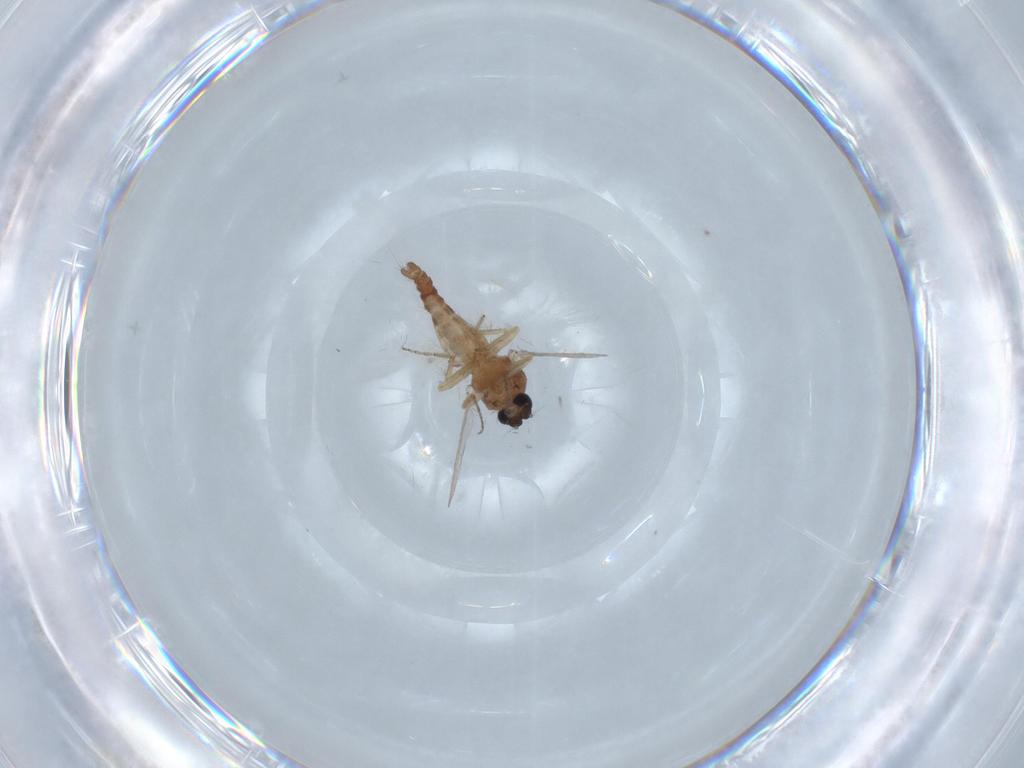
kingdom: Animalia
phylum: Arthropoda
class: Insecta
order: Diptera
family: Ceratopogonidae
